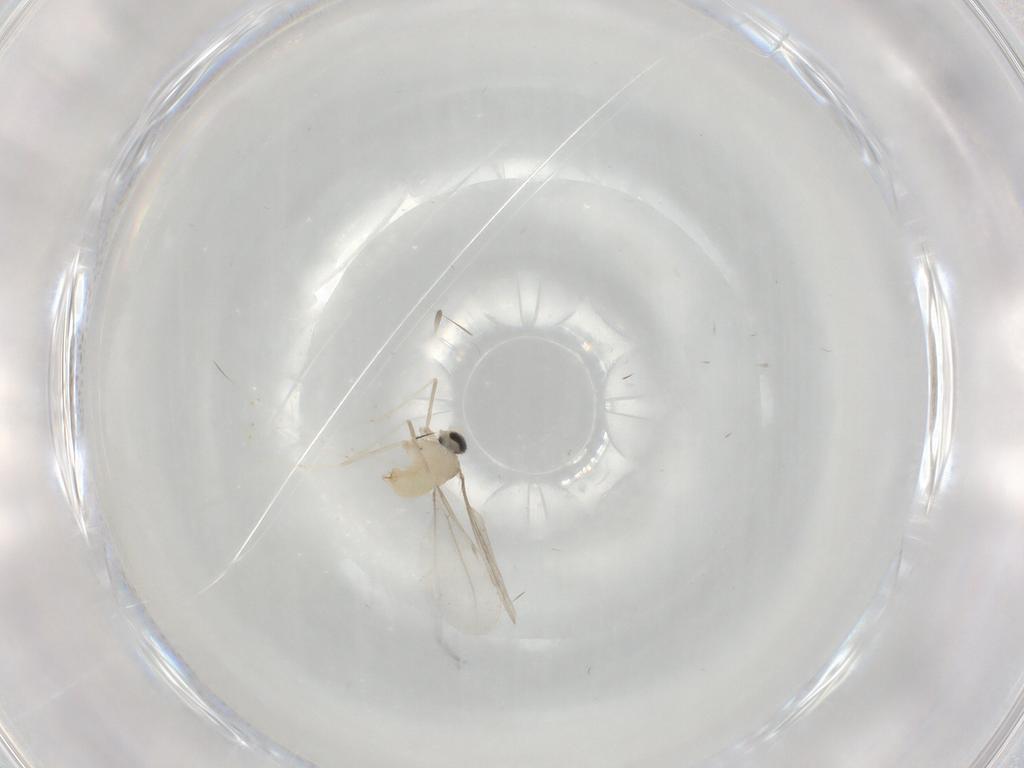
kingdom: Animalia
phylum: Arthropoda
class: Insecta
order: Diptera
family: Cecidomyiidae
